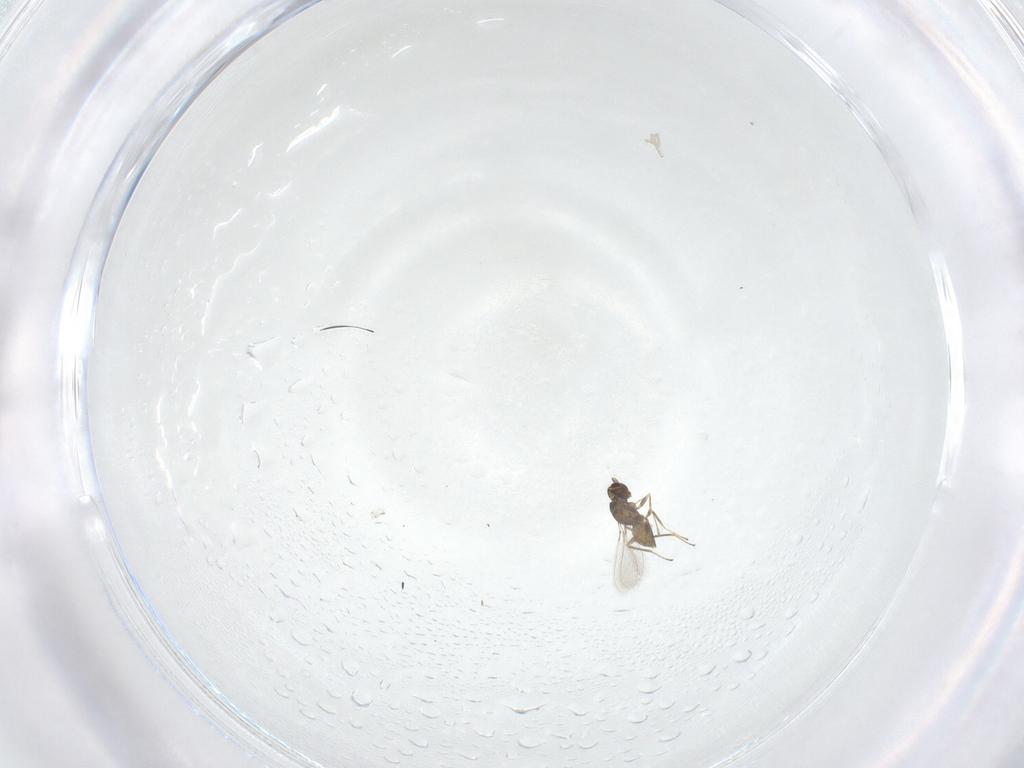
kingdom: Animalia
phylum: Arthropoda
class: Insecta
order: Hymenoptera
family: Mymaridae
